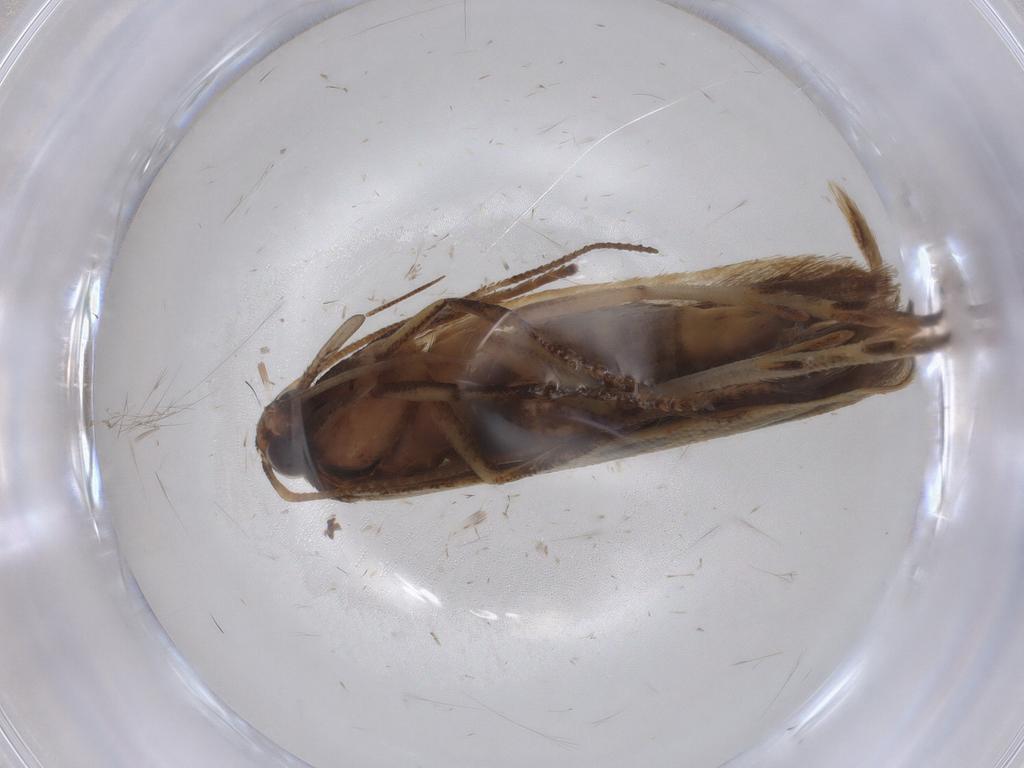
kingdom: Animalia
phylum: Arthropoda
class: Insecta
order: Lepidoptera
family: Gelechiidae
